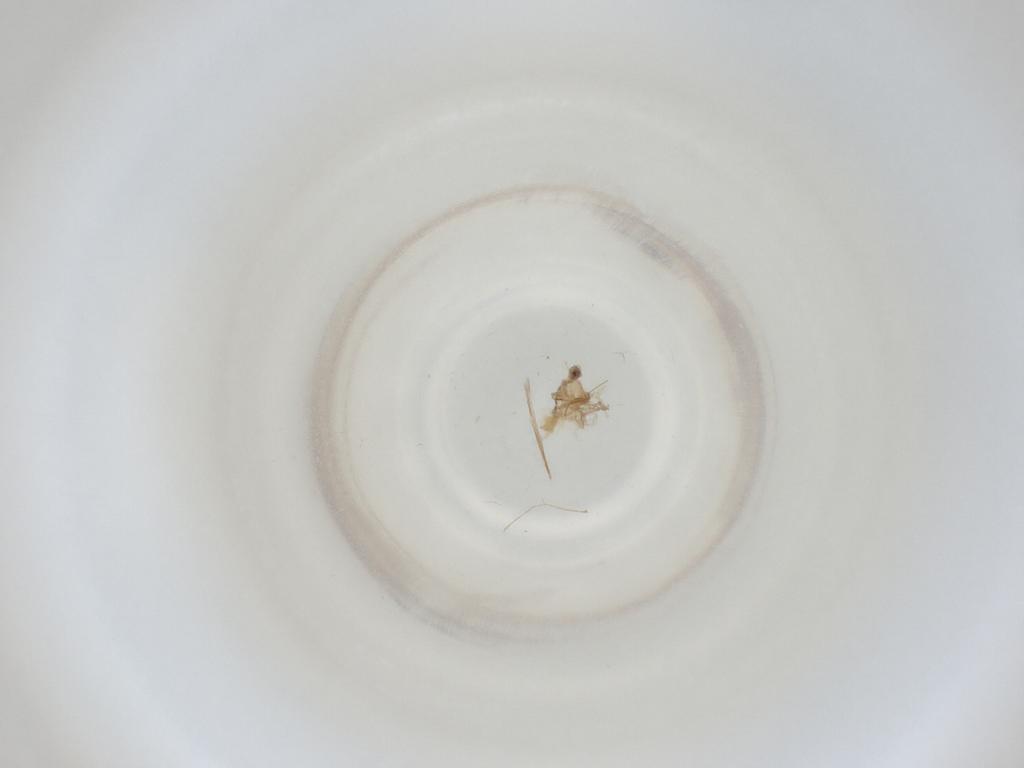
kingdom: Animalia
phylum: Arthropoda
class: Insecta
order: Diptera
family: Cecidomyiidae
